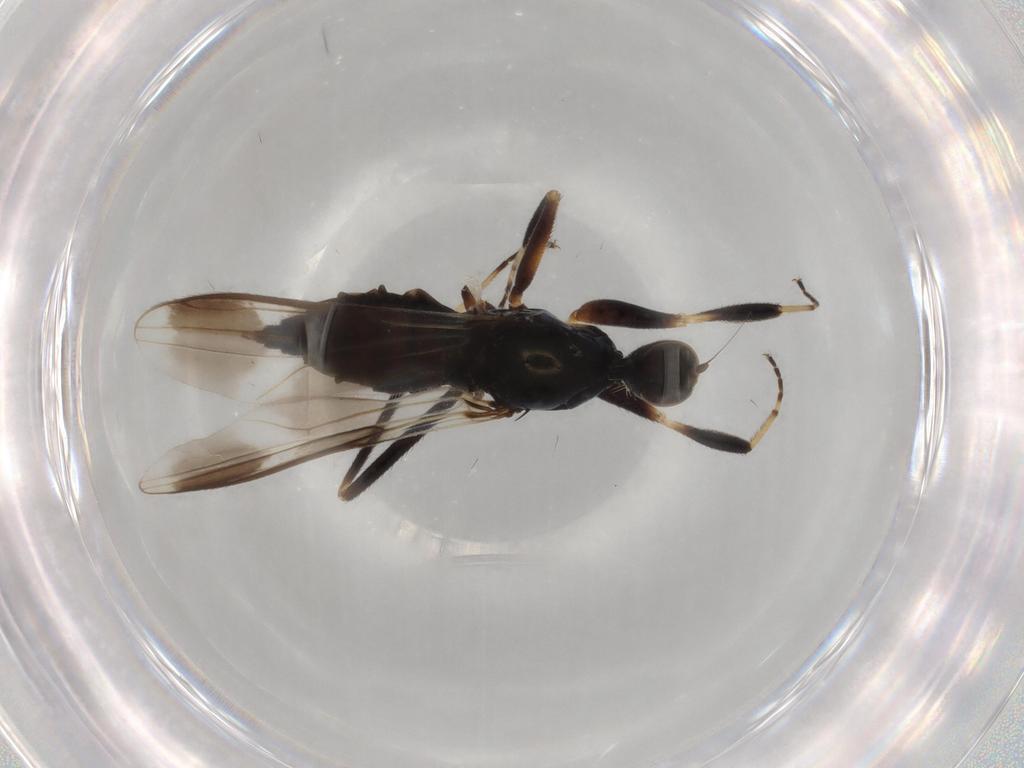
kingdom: Animalia
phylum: Arthropoda
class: Insecta
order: Diptera
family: Hybotidae
